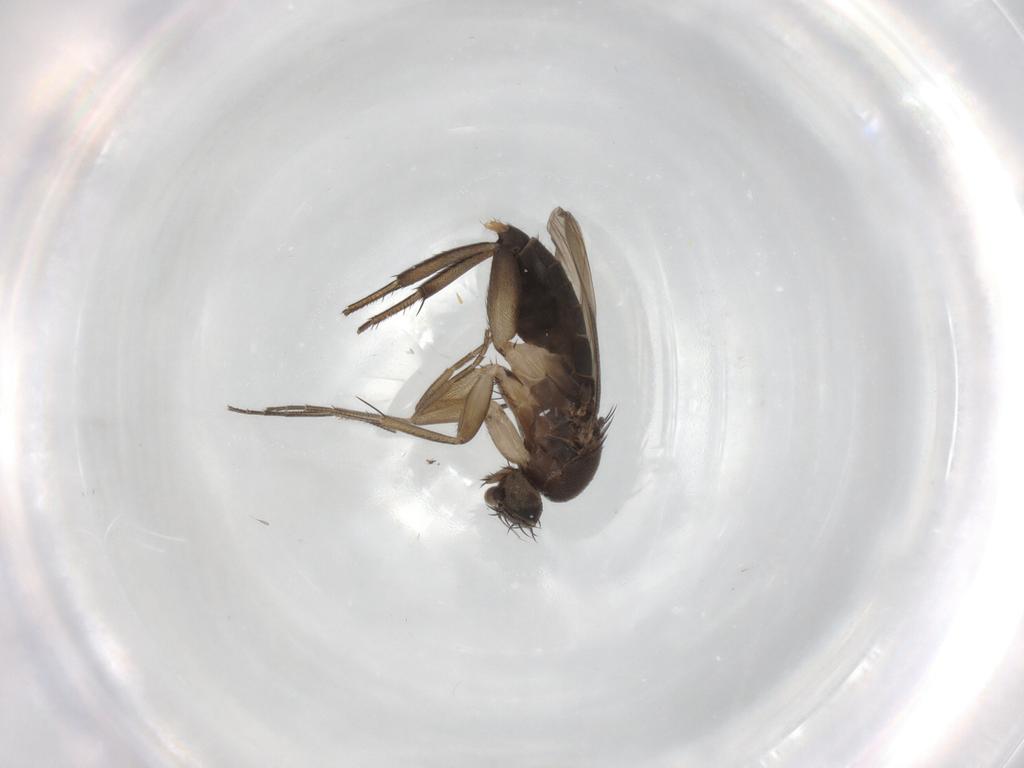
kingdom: Animalia
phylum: Arthropoda
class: Insecta
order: Diptera
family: Phoridae
